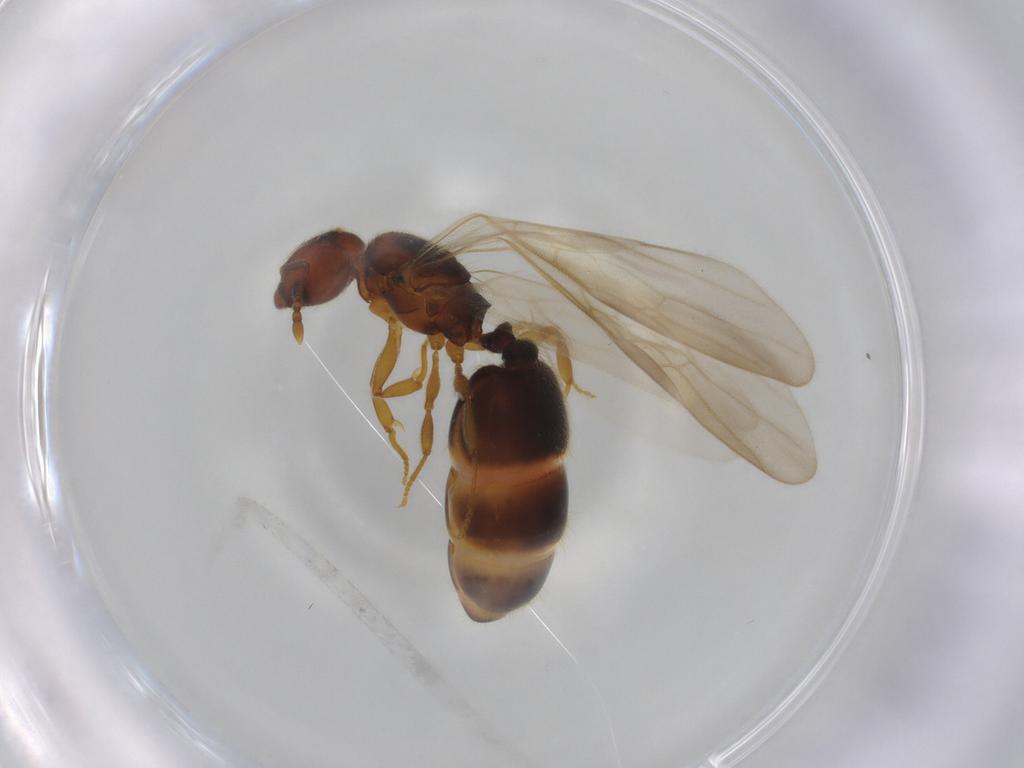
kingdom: Animalia
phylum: Arthropoda
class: Insecta
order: Hymenoptera
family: Formicidae
